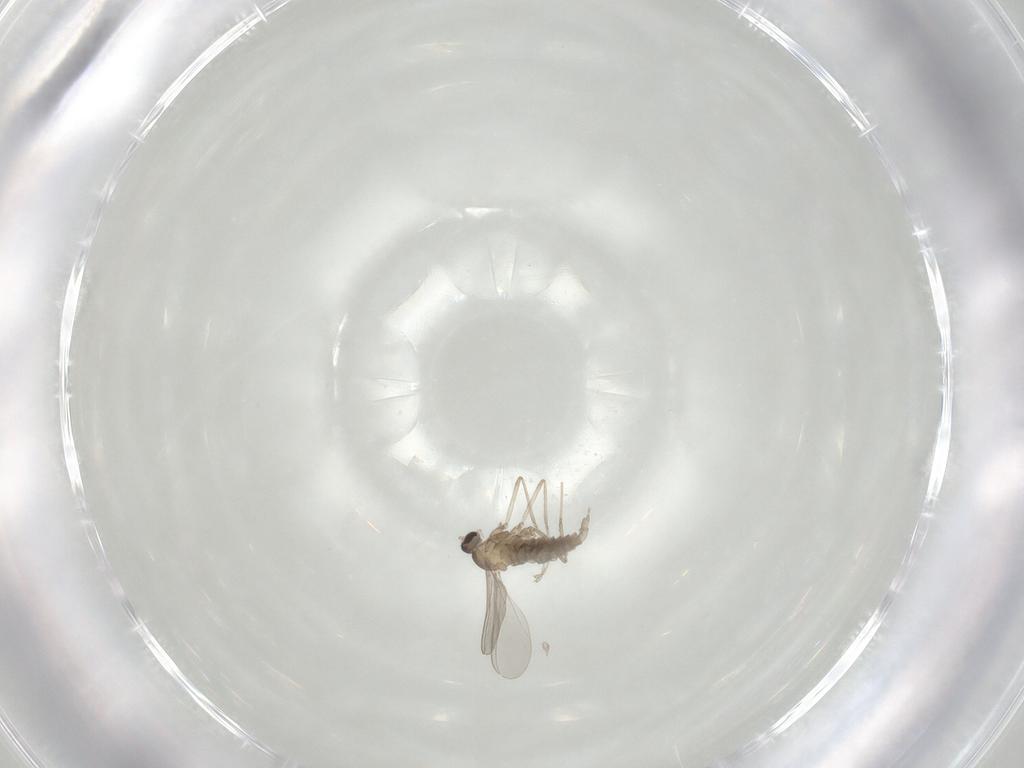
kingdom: Animalia
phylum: Arthropoda
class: Insecta
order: Diptera
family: Cecidomyiidae
